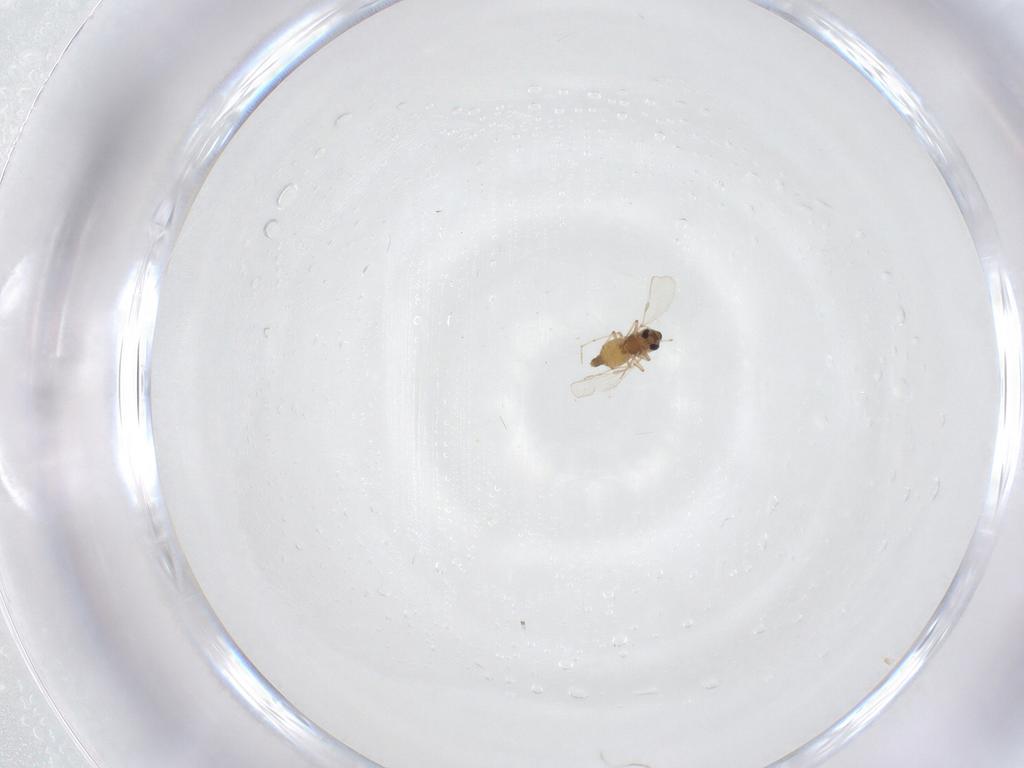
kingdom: Animalia
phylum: Arthropoda
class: Insecta
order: Diptera
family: Chironomidae
